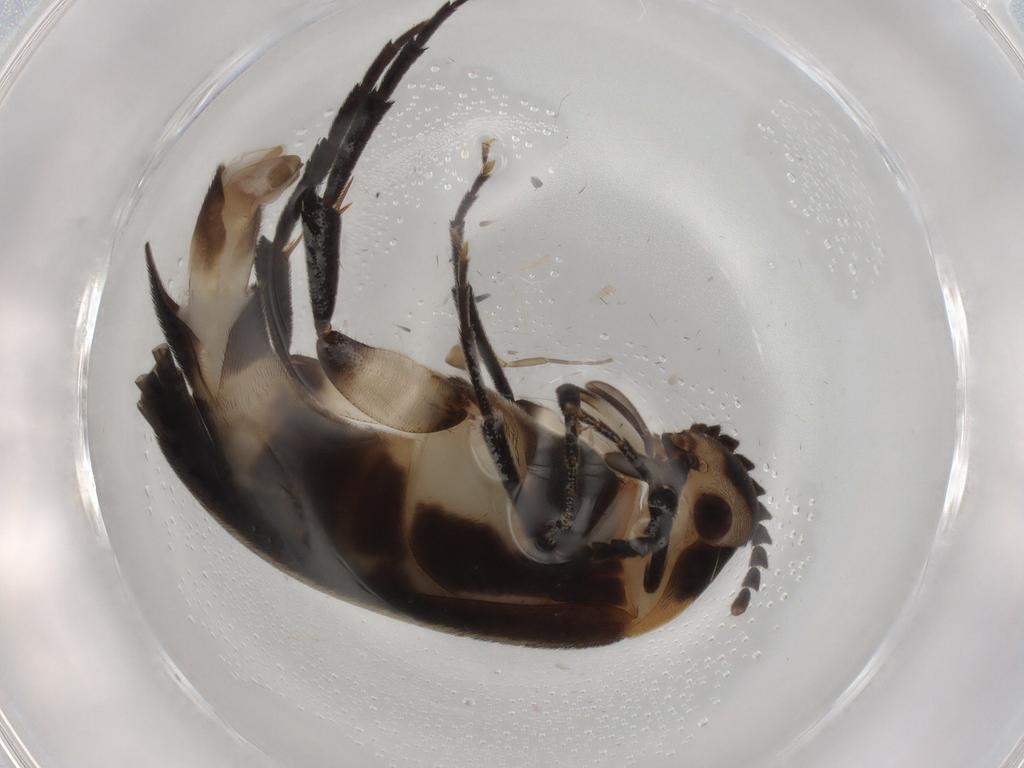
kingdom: Animalia
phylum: Arthropoda
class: Insecta
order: Coleoptera
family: Mordellidae
